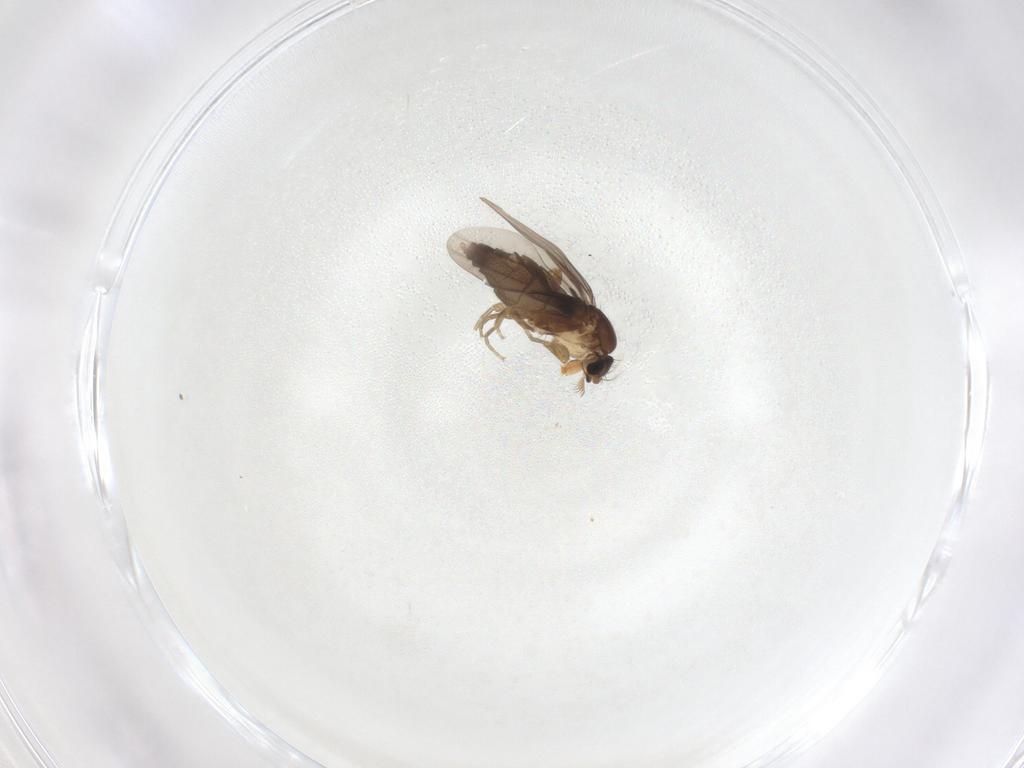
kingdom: Animalia
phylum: Arthropoda
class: Insecta
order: Diptera
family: Phoridae
